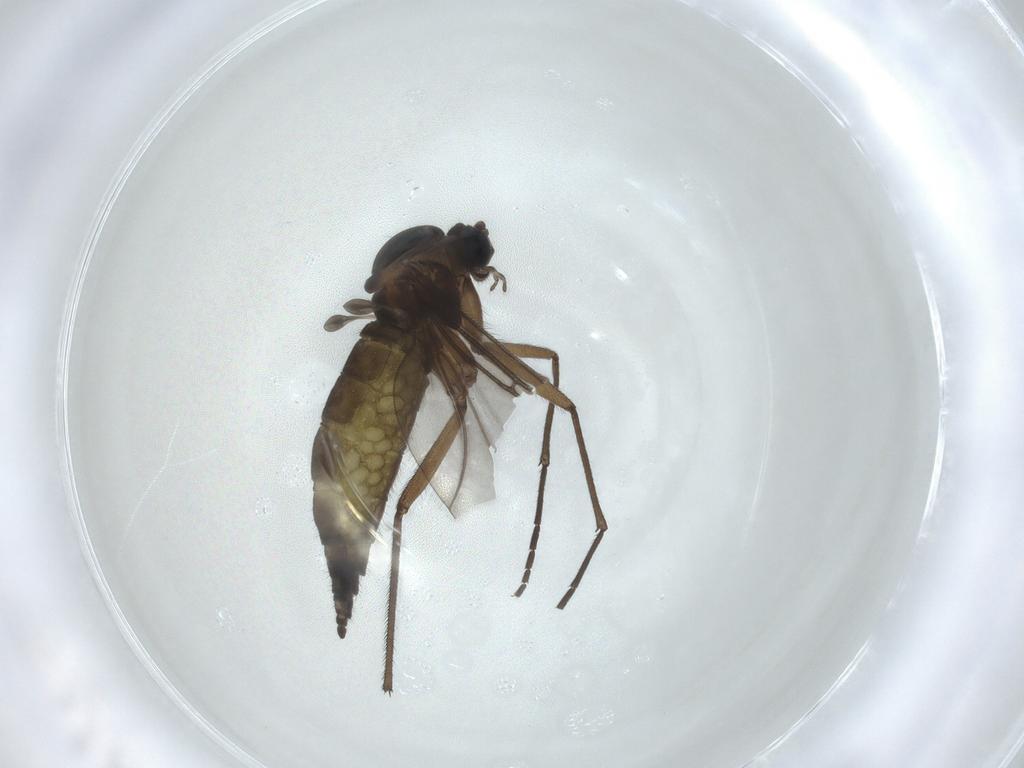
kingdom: Animalia
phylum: Arthropoda
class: Insecta
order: Diptera
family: Sciaridae
